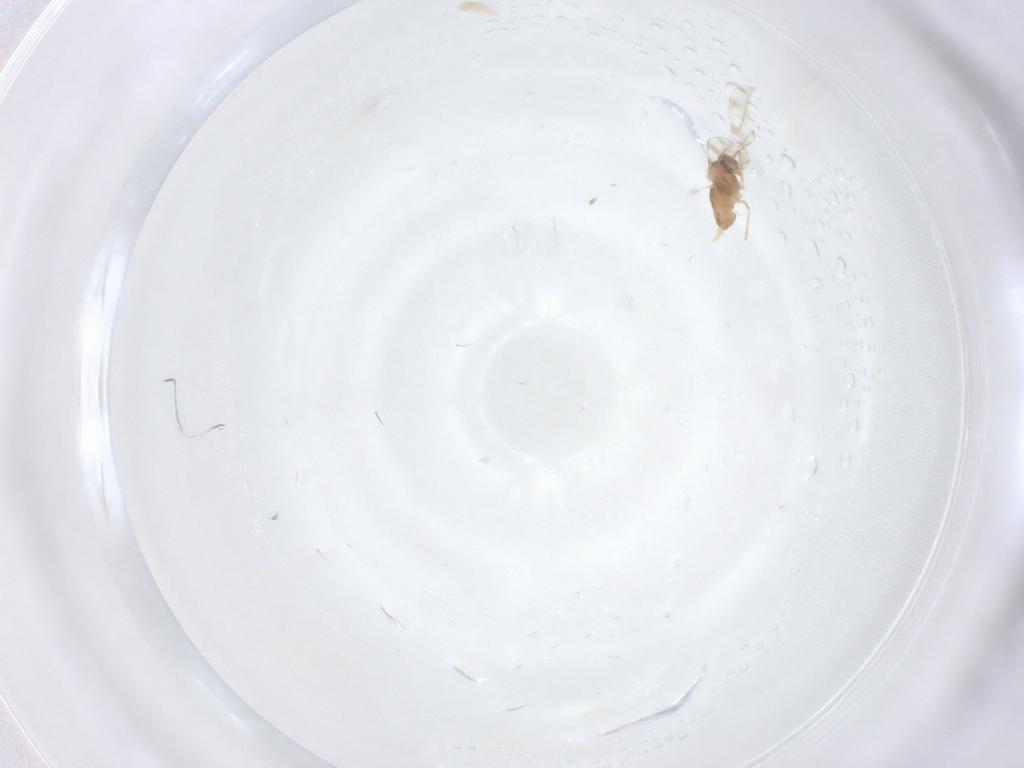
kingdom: Animalia
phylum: Arthropoda
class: Insecta
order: Diptera
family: Cecidomyiidae
